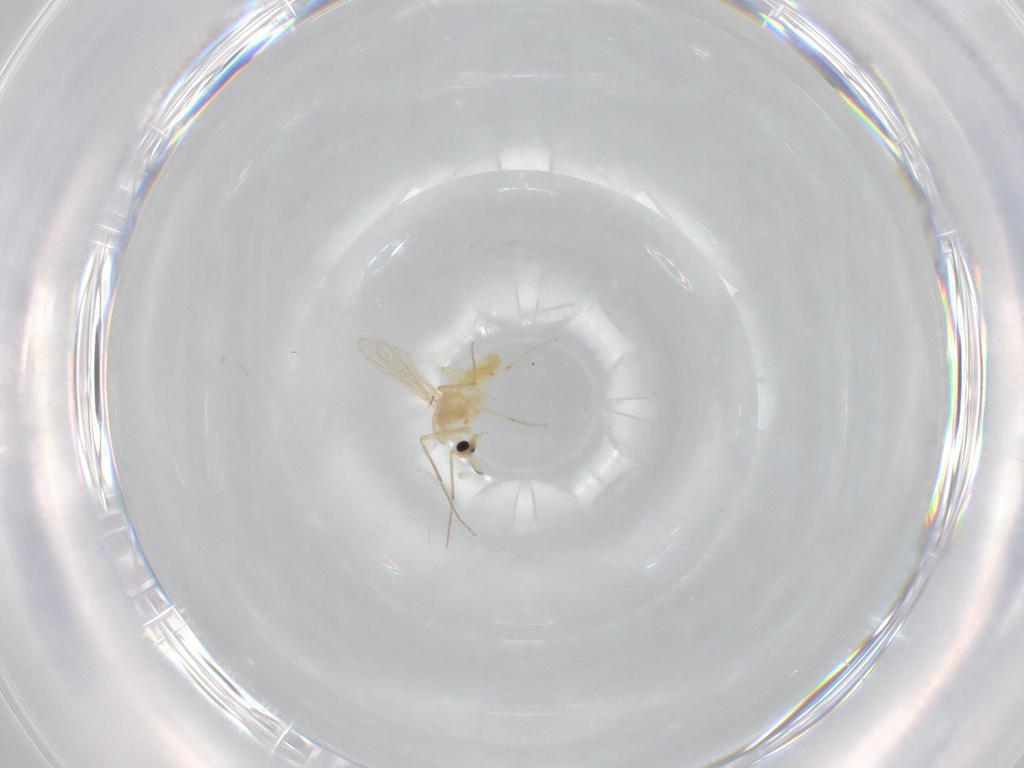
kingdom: Animalia
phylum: Arthropoda
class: Insecta
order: Diptera
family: Chironomidae
